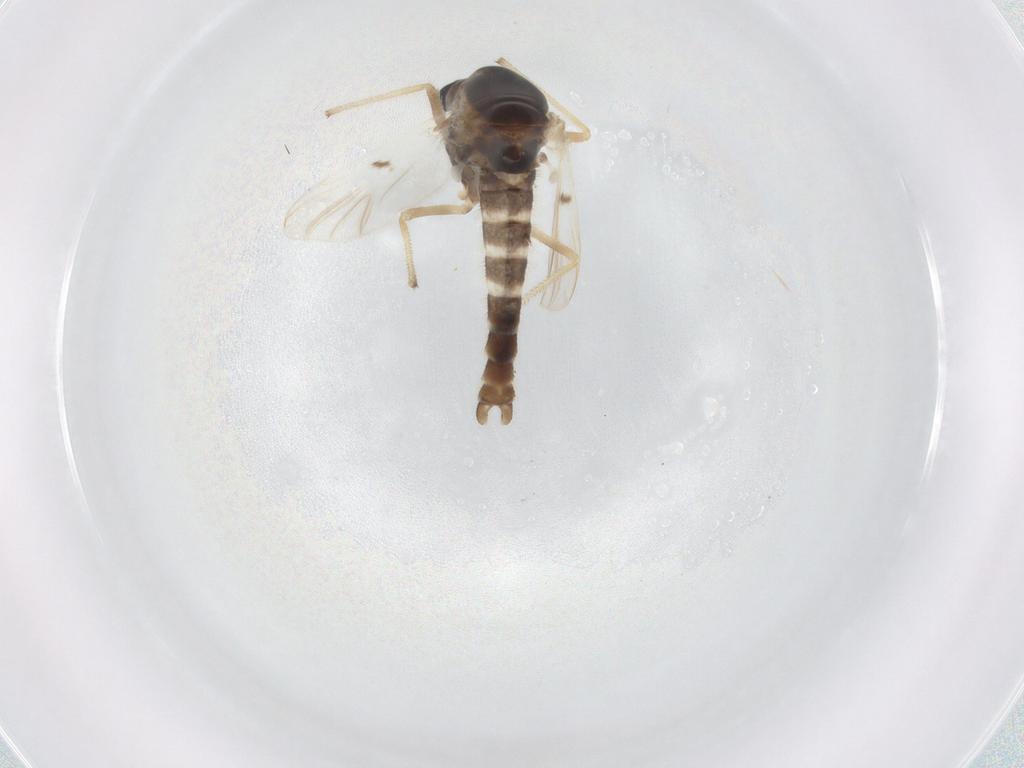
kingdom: Animalia
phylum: Arthropoda
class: Insecta
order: Diptera
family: Chironomidae
